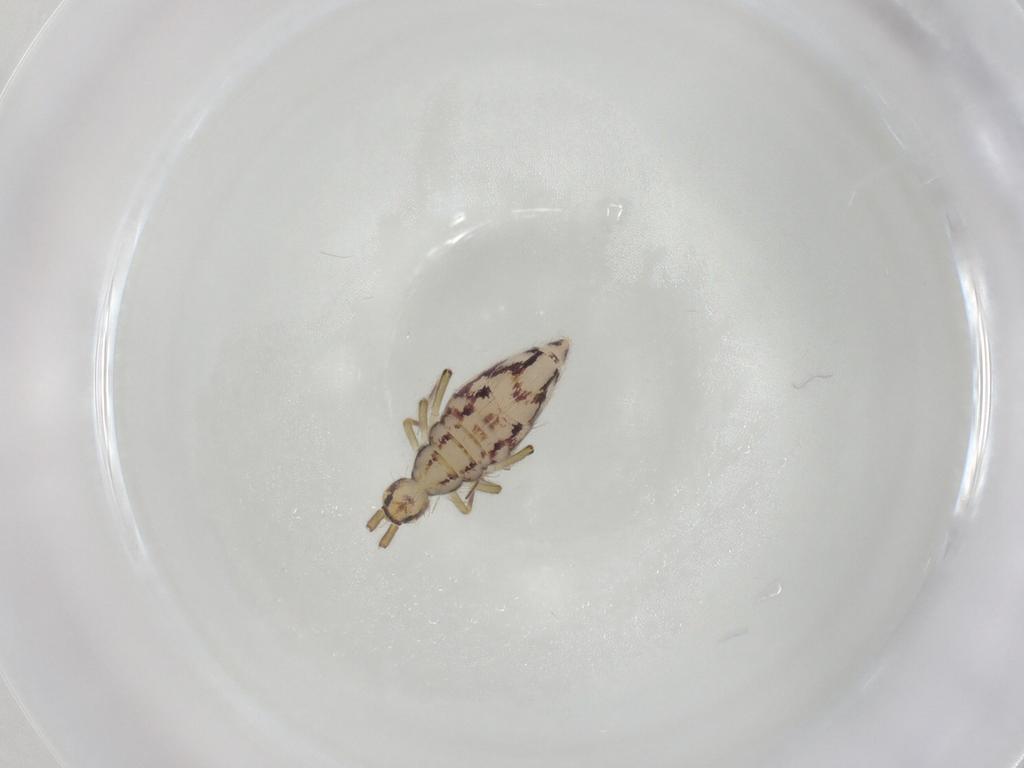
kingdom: Animalia
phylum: Arthropoda
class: Collembola
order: Entomobryomorpha
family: Entomobryidae
